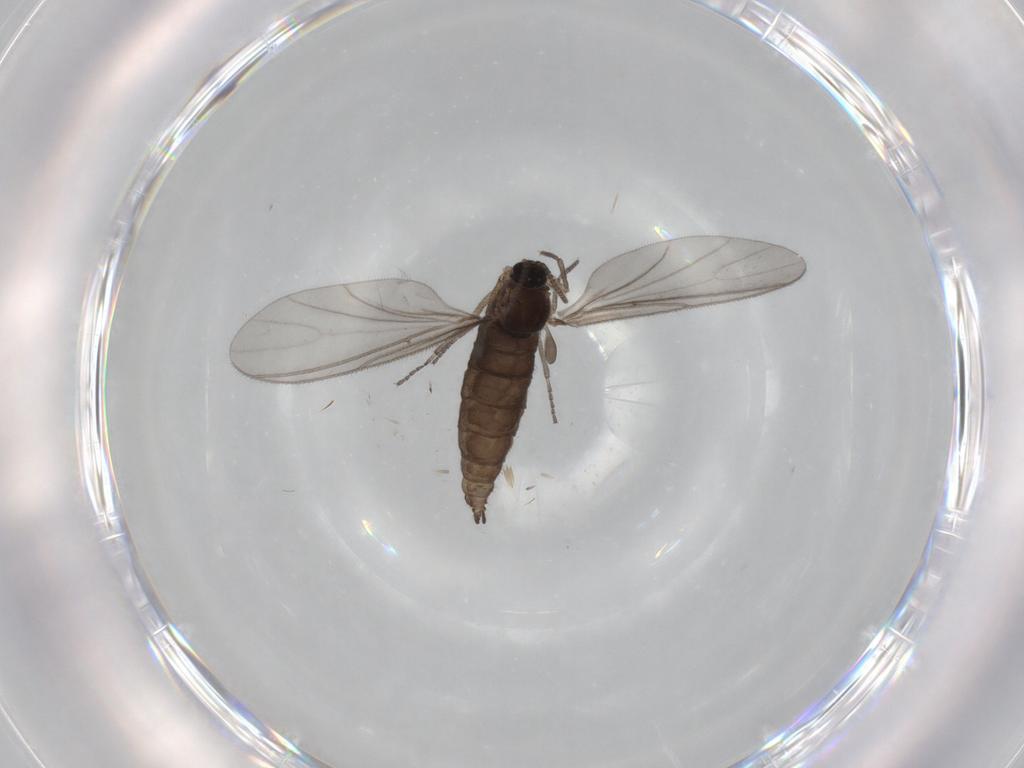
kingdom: Animalia
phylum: Arthropoda
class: Insecta
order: Diptera
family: Sciaridae
